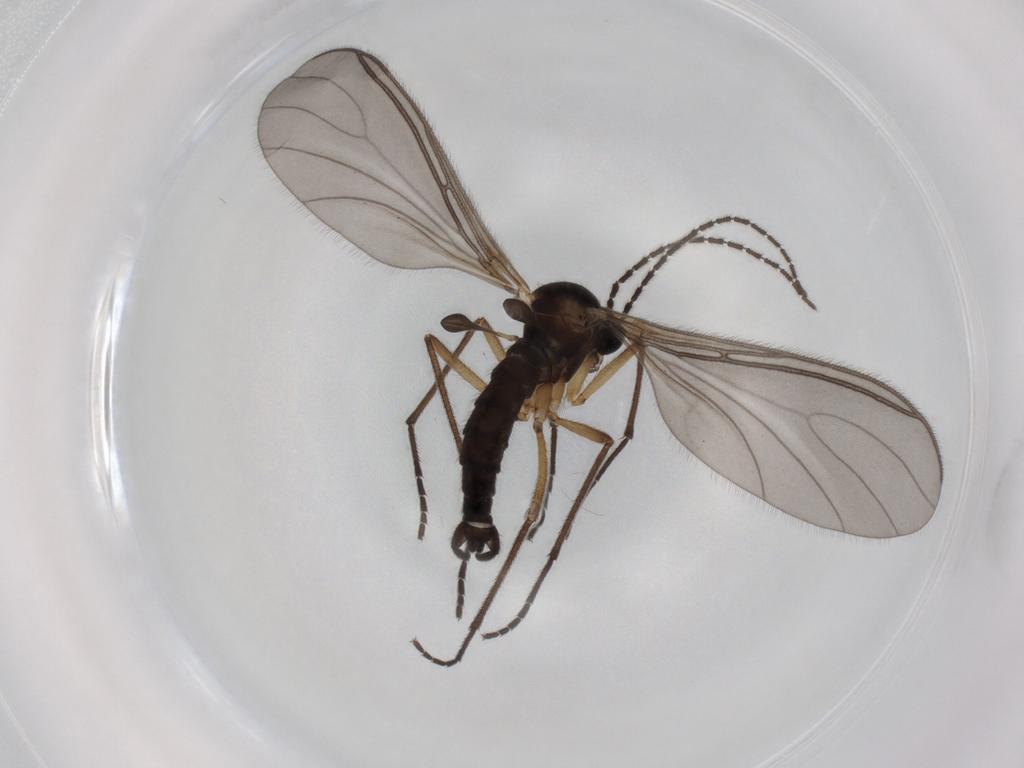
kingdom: Animalia
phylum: Arthropoda
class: Insecta
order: Diptera
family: Sciaridae
